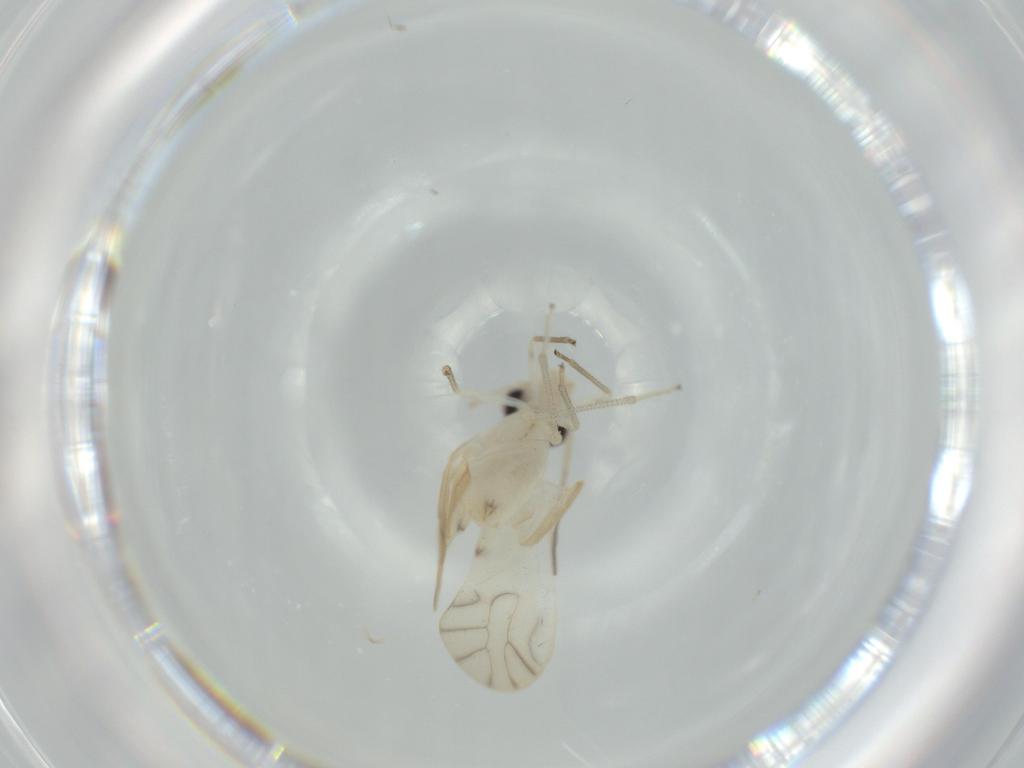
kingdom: Animalia
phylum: Arthropoda
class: Insecta
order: Psocodea
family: Caeciliusidae
